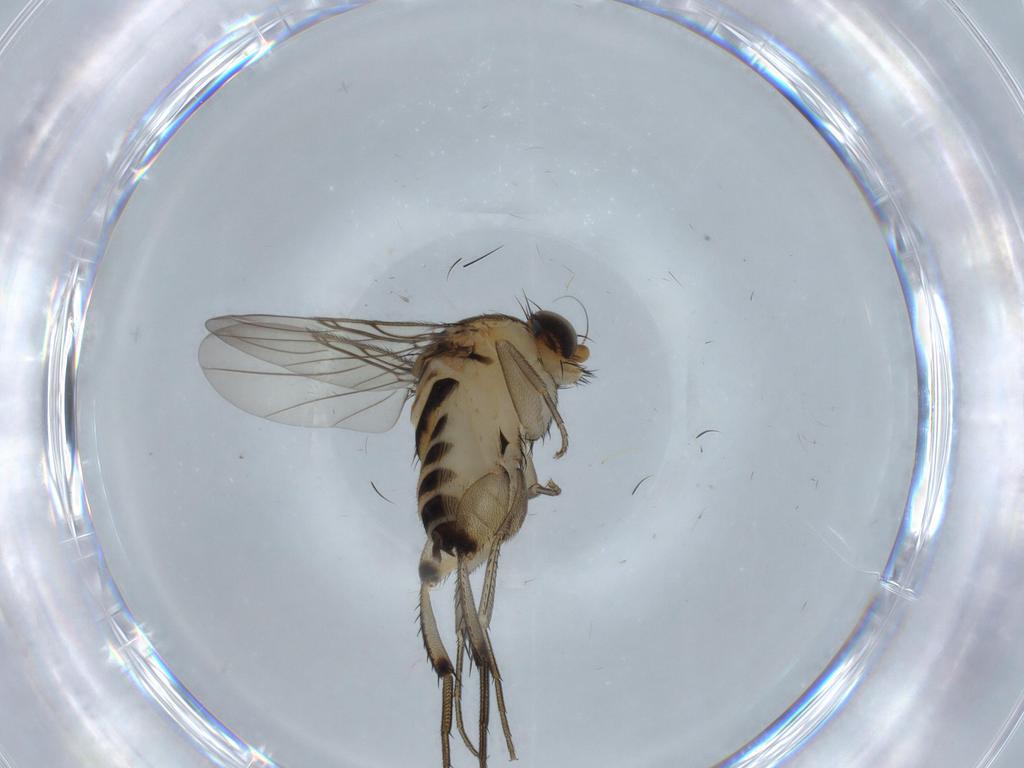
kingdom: Animalia
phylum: Arthropoda
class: Insecta
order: Diptera
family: Phoridae
